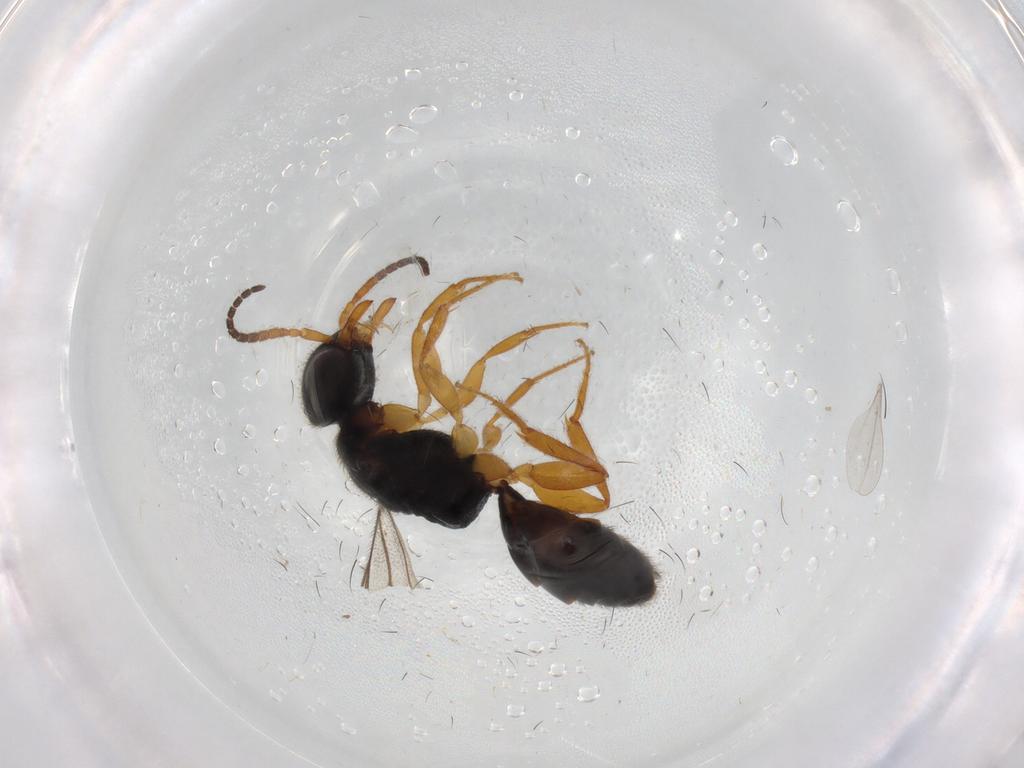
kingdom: Animalia
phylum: Arthropoda
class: Insecta
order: Hymenoptera
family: Bethylidae
